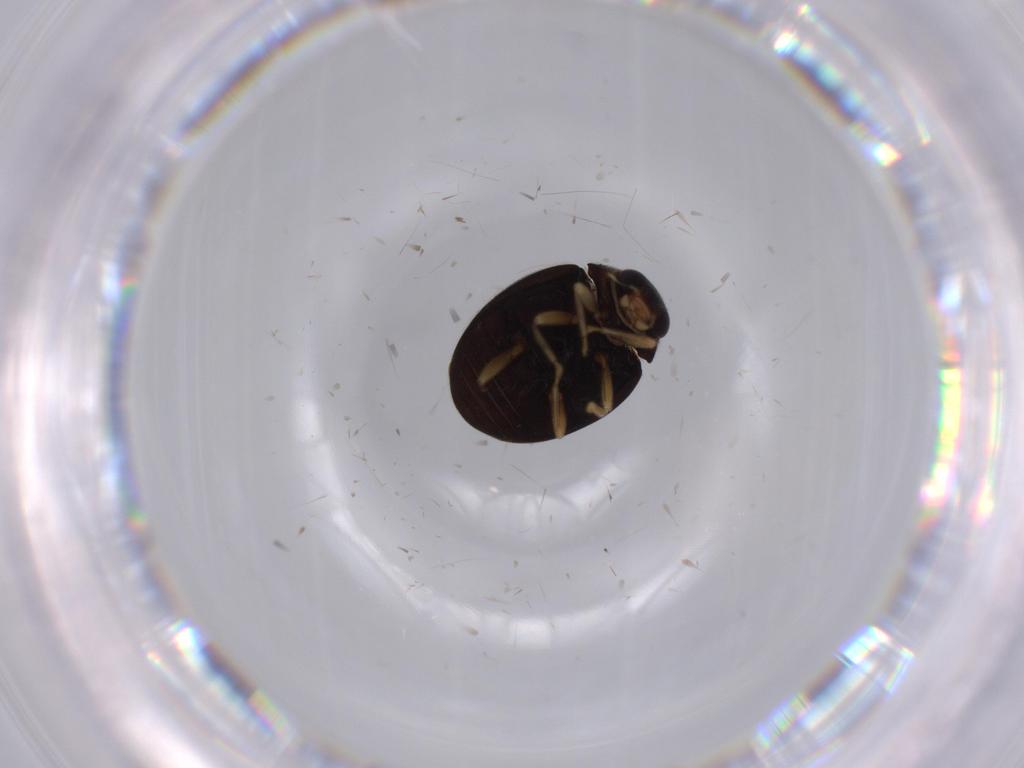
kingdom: Animalia
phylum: Arthropoda
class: Insecta
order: Coleoptera
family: Coccinellidae
